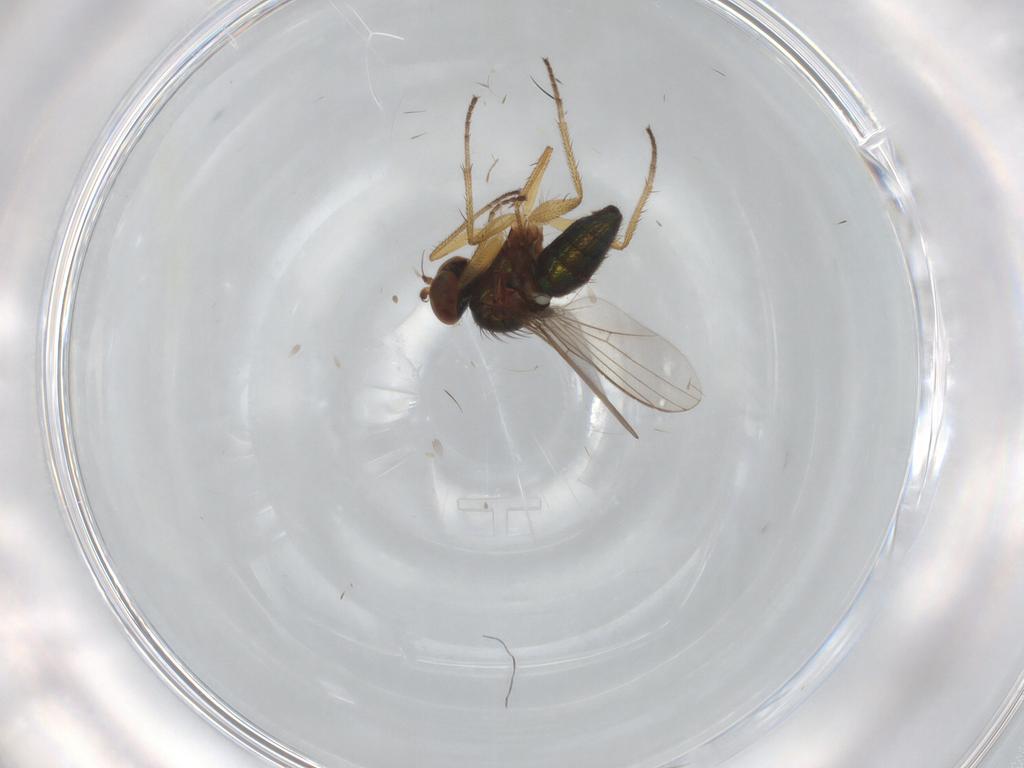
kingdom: Animalia
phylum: Arthropoda
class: Insecta
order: Diptera
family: Chironomidae
